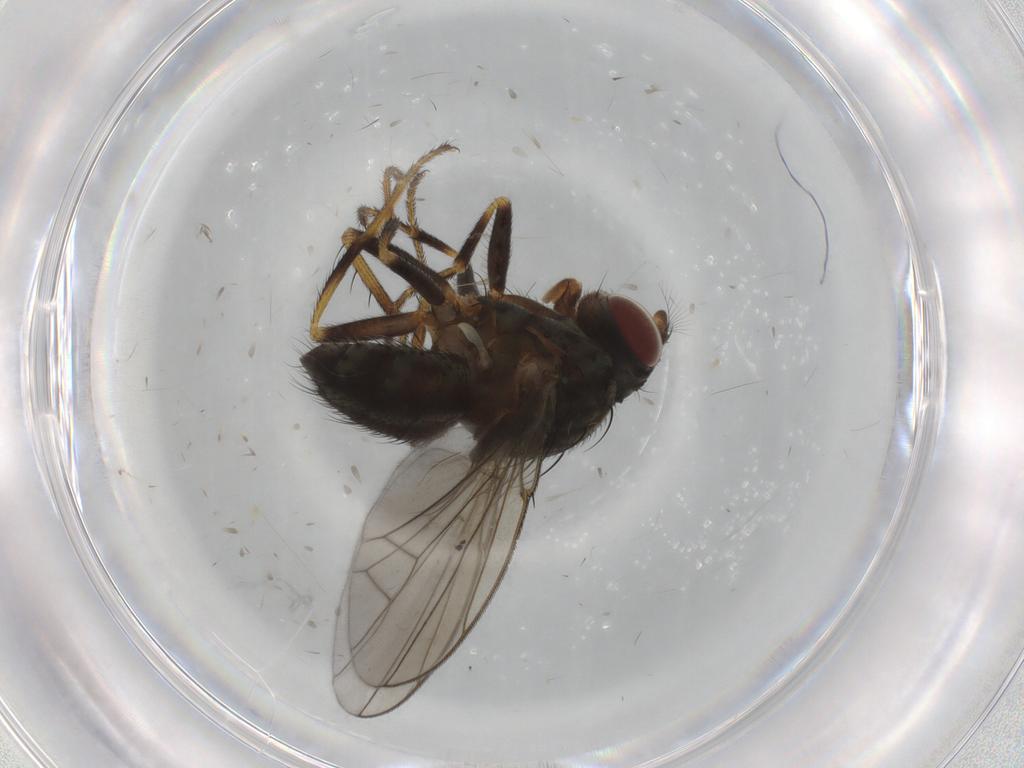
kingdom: Animalia
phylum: Arthropoda
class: Insecta
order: Diptera
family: Ephydridae
